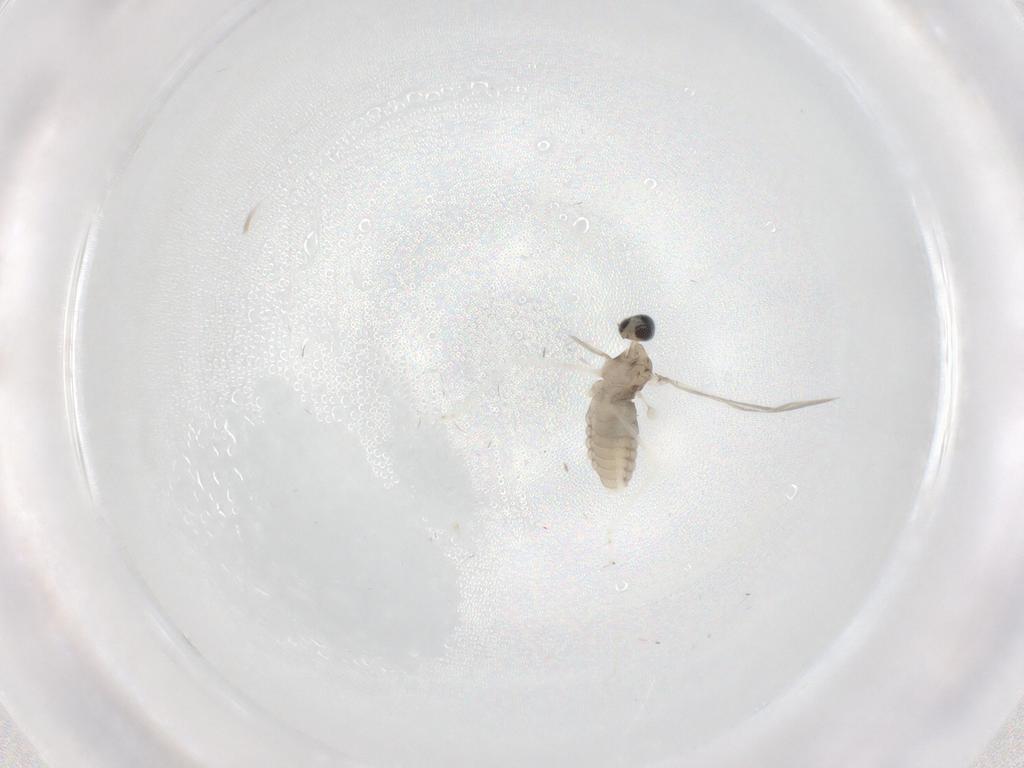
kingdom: Animalia
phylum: Arthropoda
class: Insecta
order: Diptera
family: Cecidomyiidae
